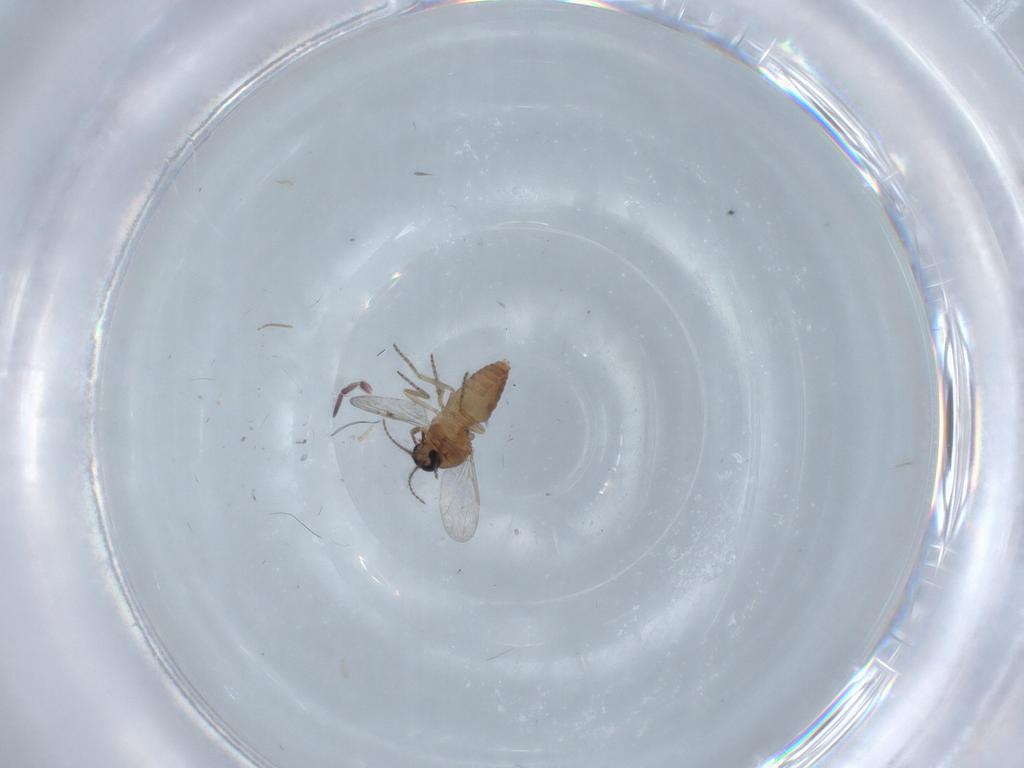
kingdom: Animalia
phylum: Arthropoda
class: Insecta
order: Diptera
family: Ceratopogonidae
